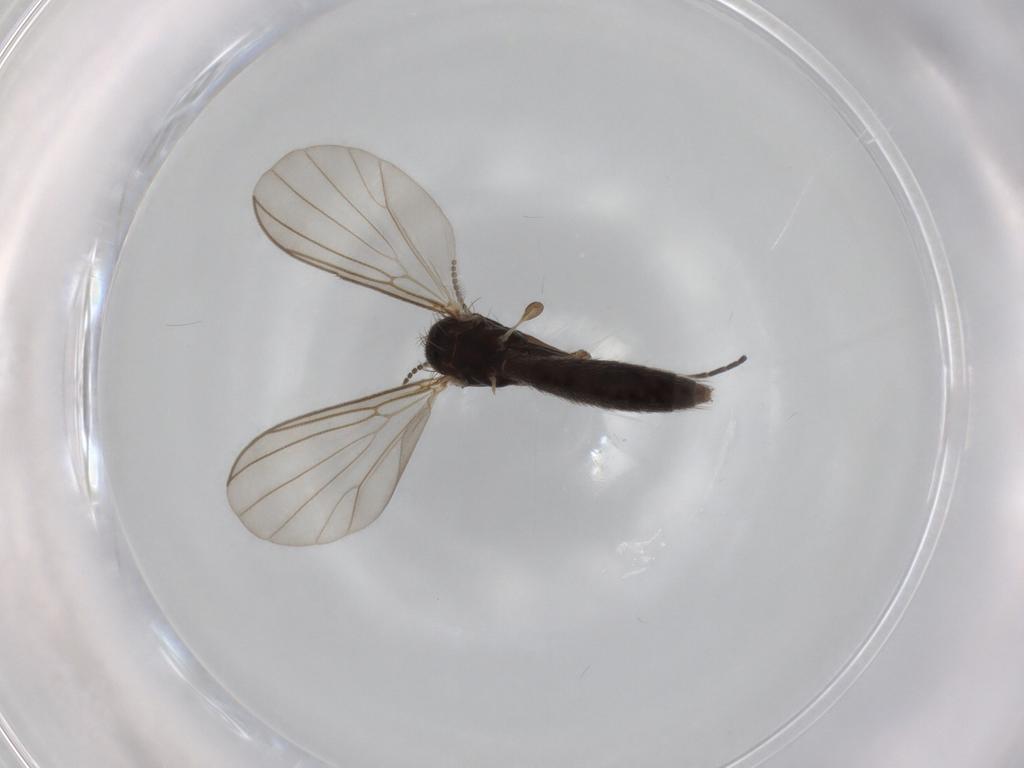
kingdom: Animalia
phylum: Arthropoda
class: Insecta
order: Diptera
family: Mycetophilidae
